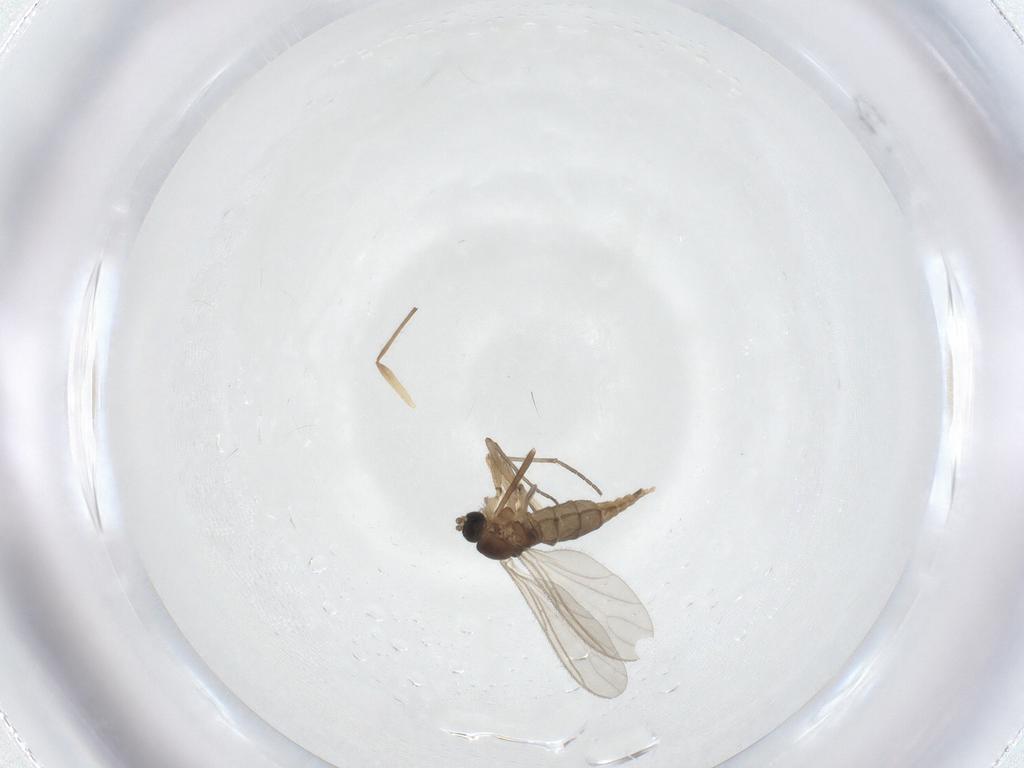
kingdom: Animalia
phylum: Arthropoda
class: Insecta
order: Diptera
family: Sciaridae
